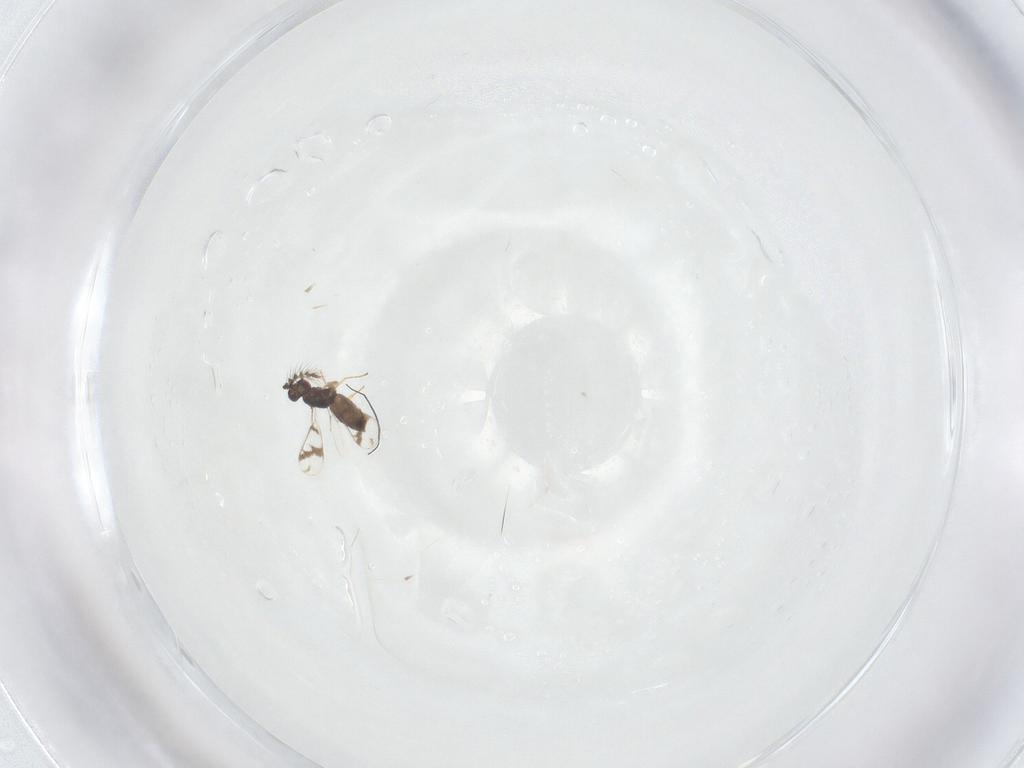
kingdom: Animalia
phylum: Arthropoda
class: Insecta
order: Hymenoptera
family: Eulophidae
